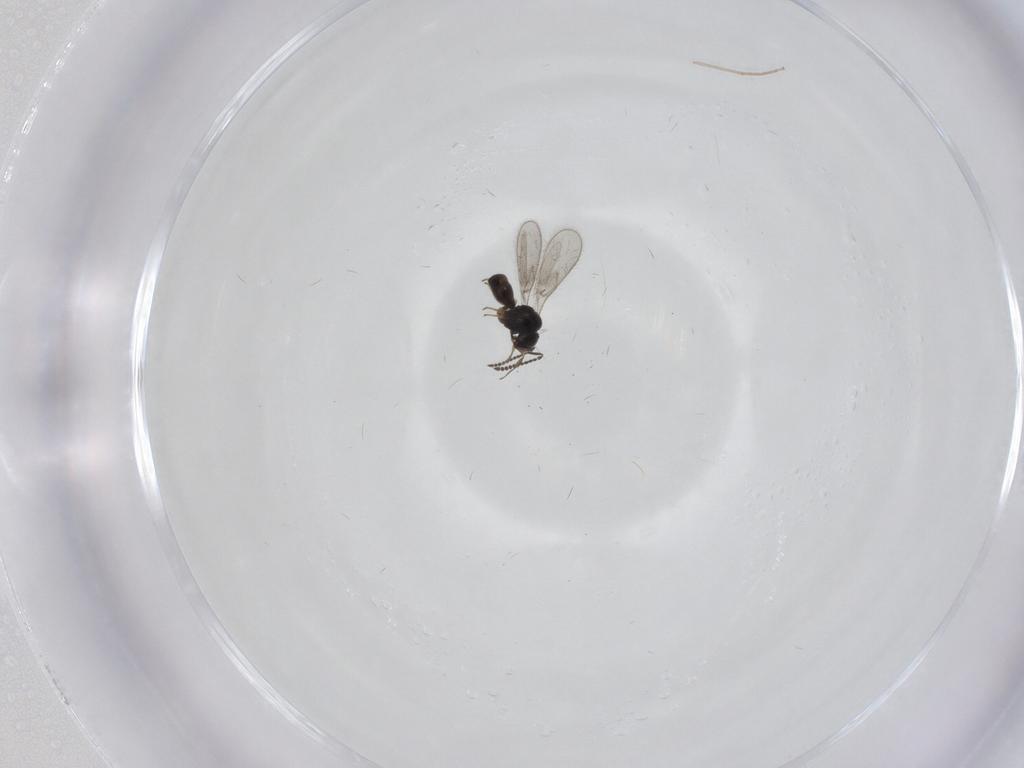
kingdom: Animalia
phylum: Arthropoda
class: Insecta
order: Hymenoptera
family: Scelionidae
